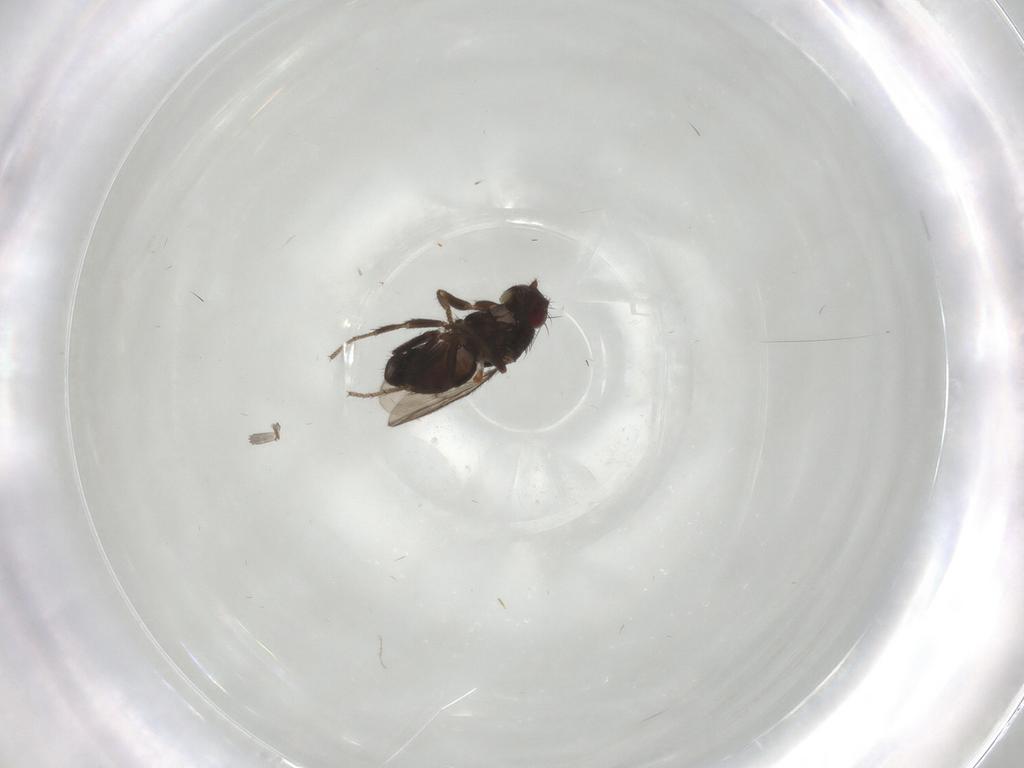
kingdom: Animalia
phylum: Arthropoda
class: Insecta
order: Diptera
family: Sphaeroceridae
